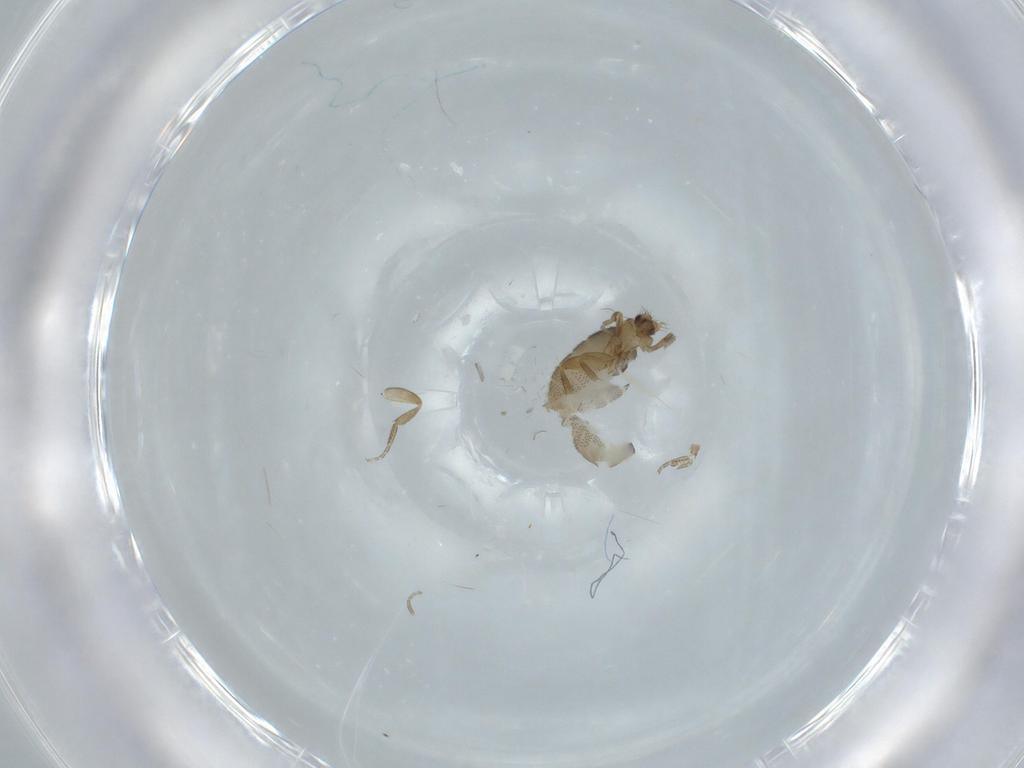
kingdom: Animalia
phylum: Arthropoda
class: Insecta
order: Diptera
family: Phoridae
